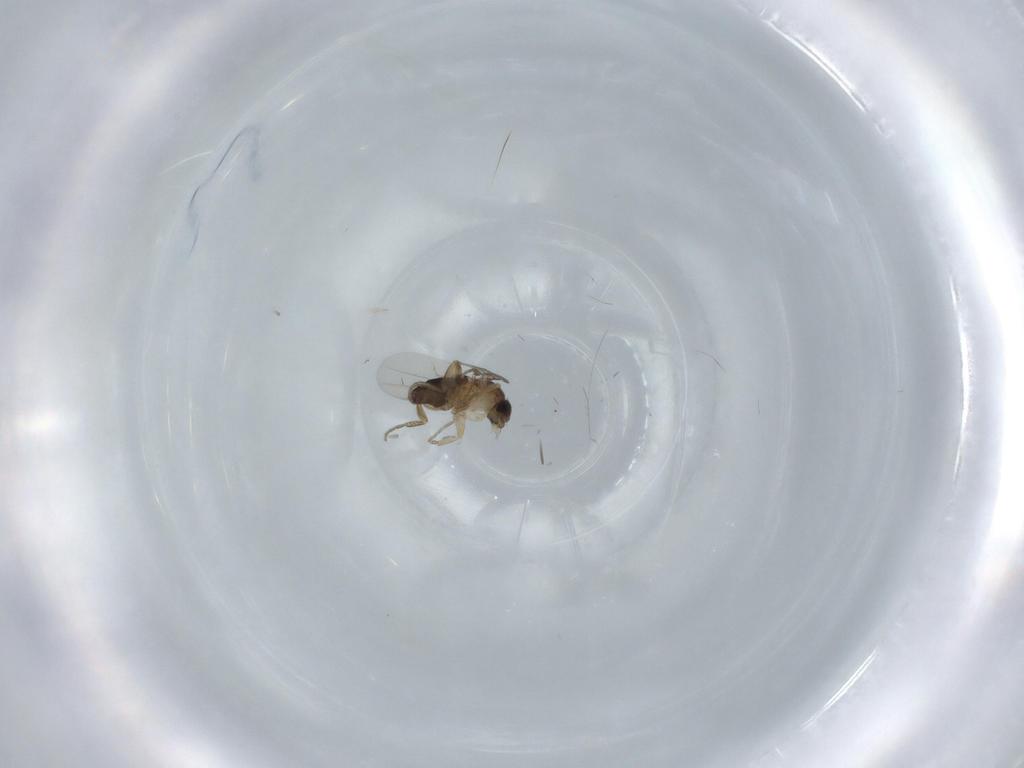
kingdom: Animalia
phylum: Arthropoda
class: Insecta
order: Diptera
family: Phoridae
